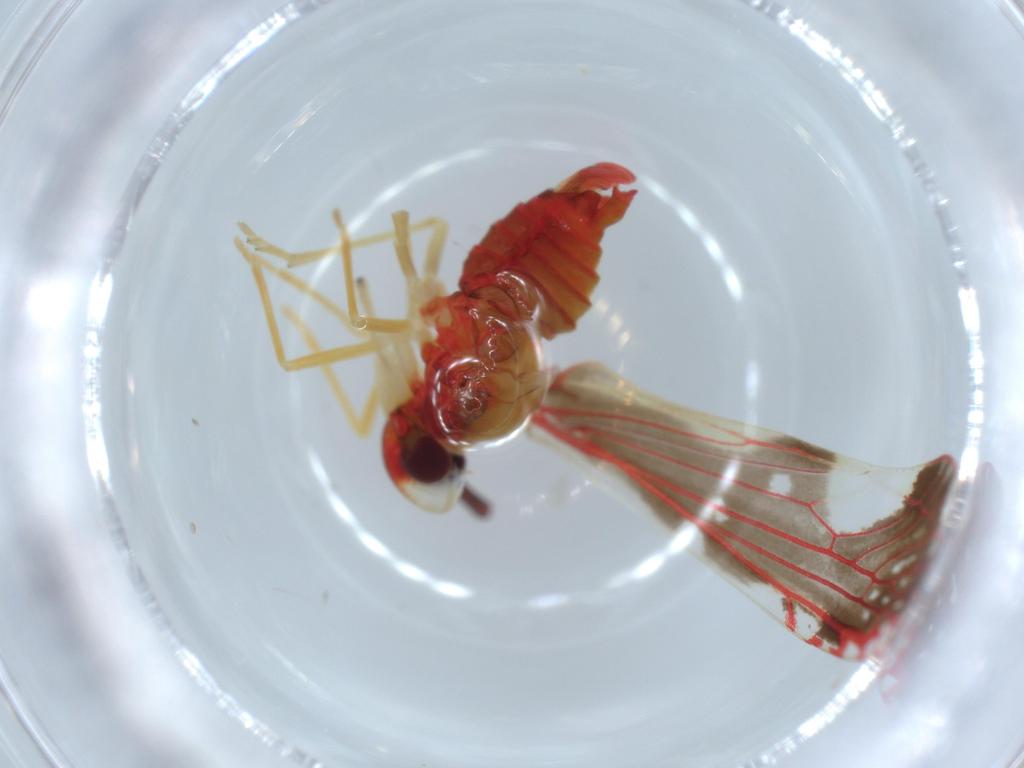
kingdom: Animalia
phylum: Arthropoda
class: Insecta
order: Hemiptera
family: Derbidae
